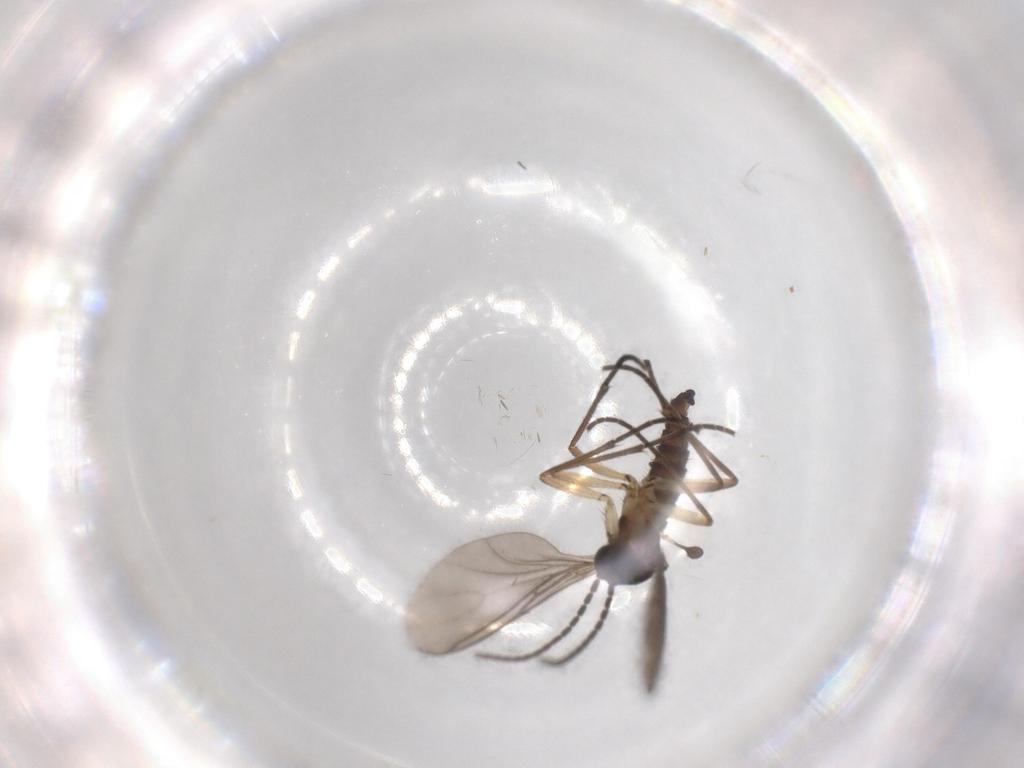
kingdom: Animalia
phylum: Arthropoda
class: Insecta
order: Diptera
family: Sciaridae
